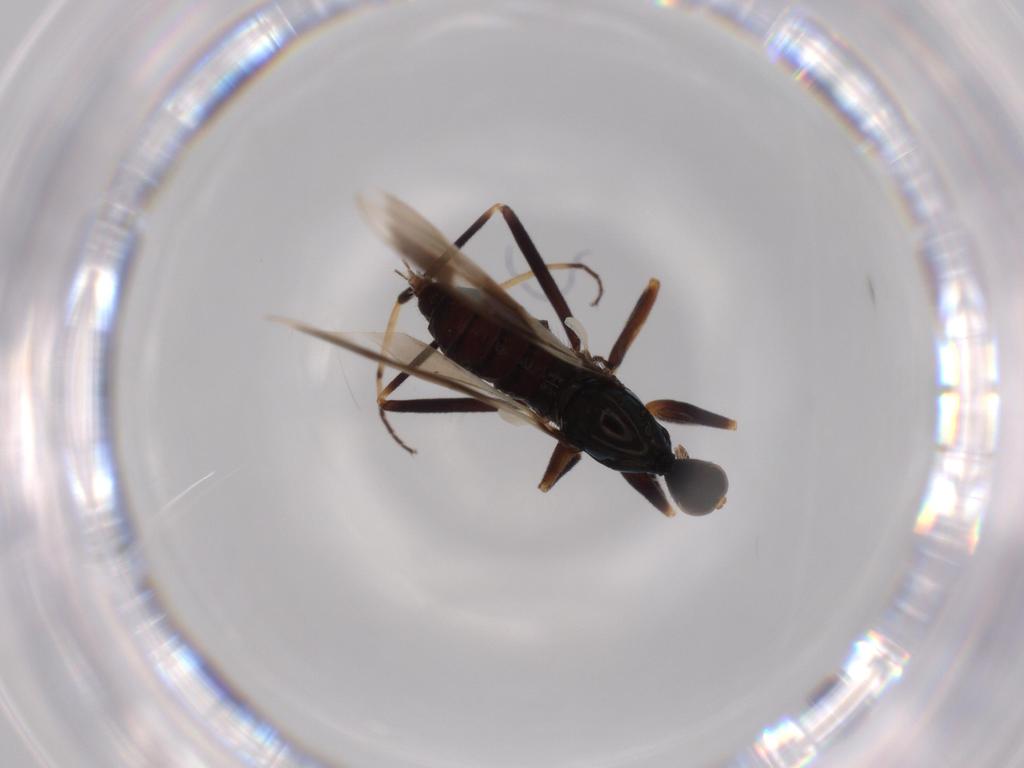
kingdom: Animalia
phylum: Arthropoda
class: Insecta
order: Diptera
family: Hybotidae
